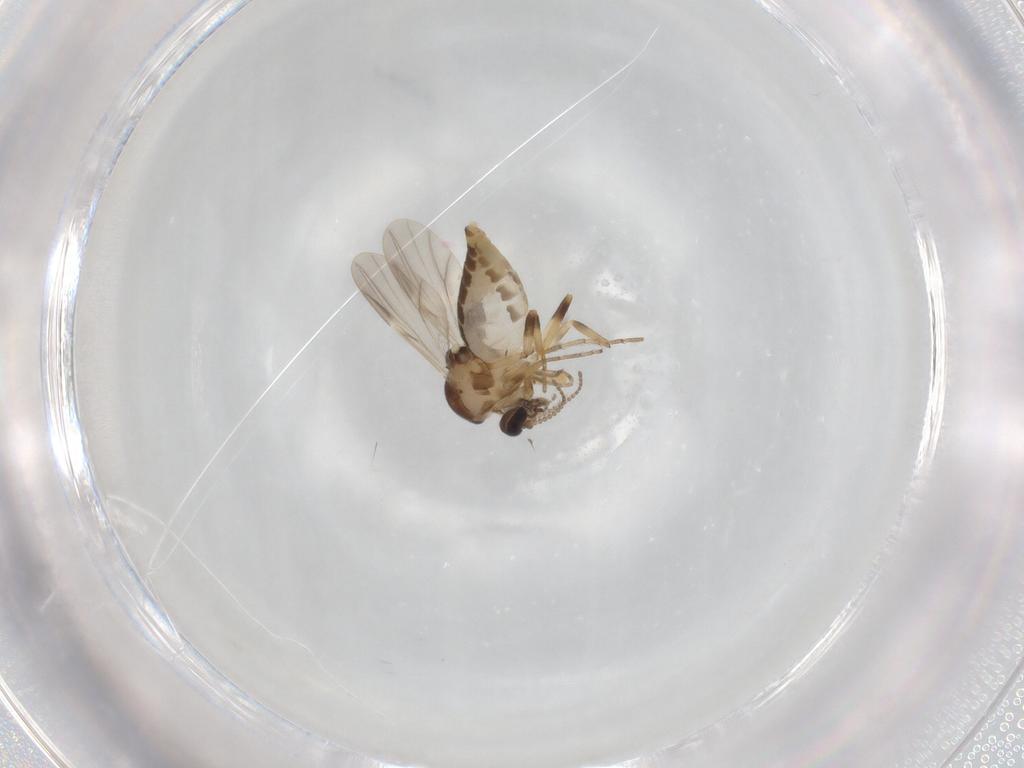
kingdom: Animalia
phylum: Arthropoda
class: Insecta
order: Diptera
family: Ceratopogonidae
